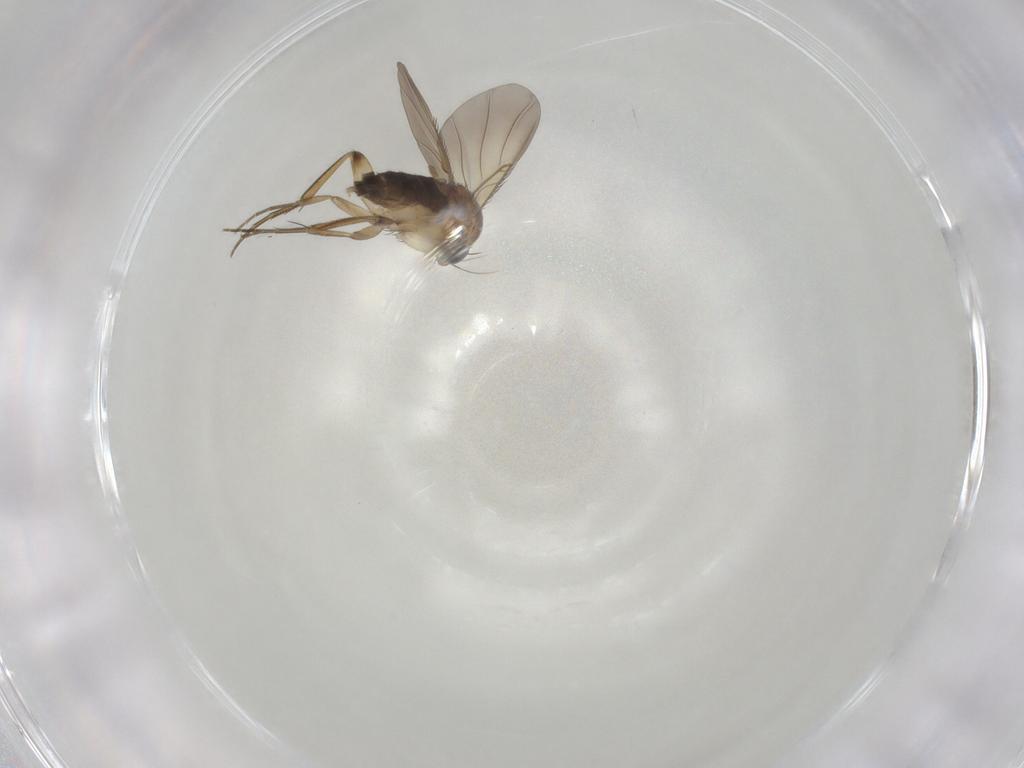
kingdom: Animalia
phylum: Arthropoda
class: Insecta
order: Diptera
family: Phoridae
